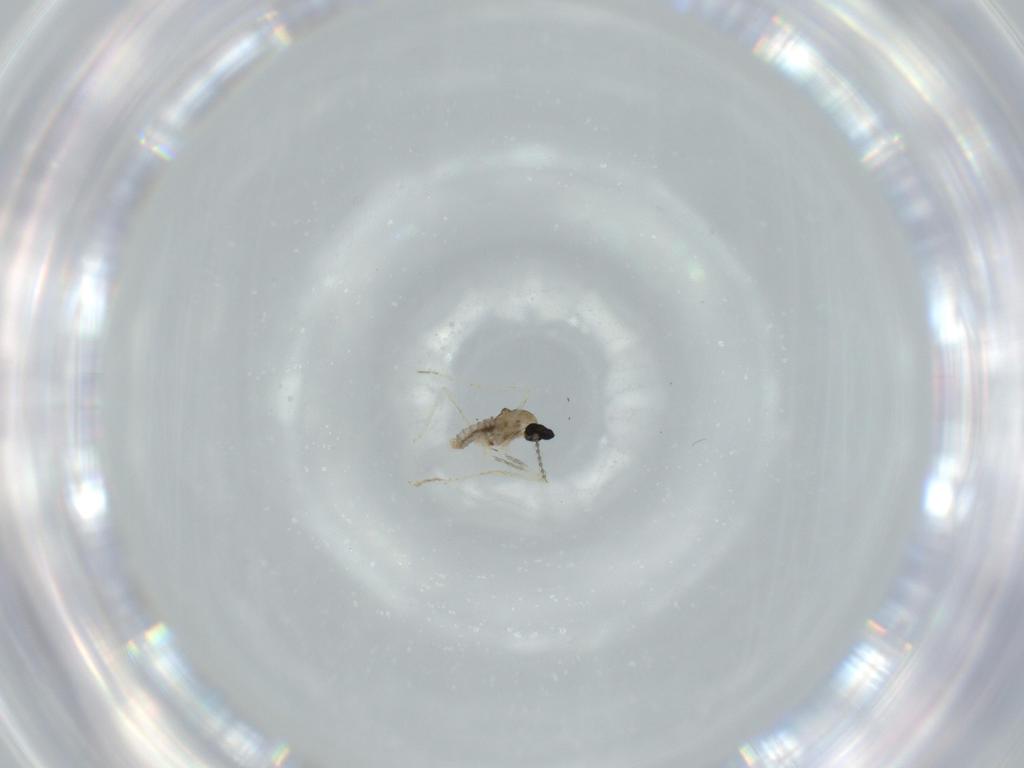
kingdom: Animalia
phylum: Arthropoda
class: Insecta
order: Diptera
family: Cecidomyiidae
